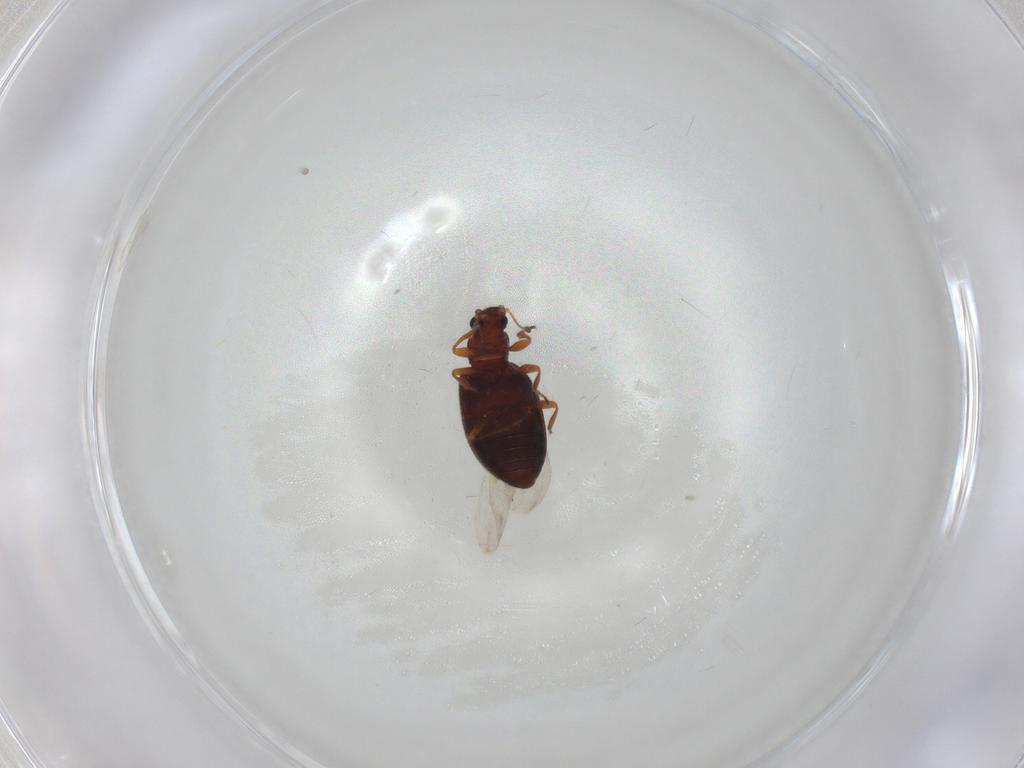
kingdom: Animalia
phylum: Arthropoda
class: Insecta
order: Coleoptera
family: Latridiidae
